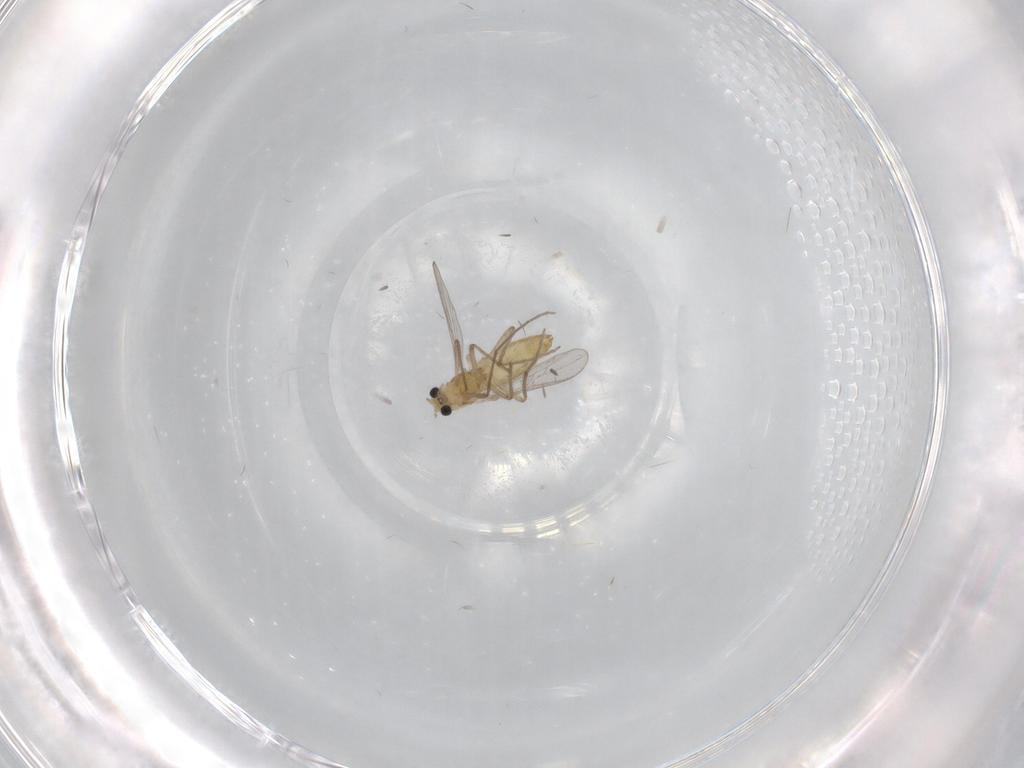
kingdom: Animalia
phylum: Arthropoda
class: Insecta
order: Diptera
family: Chironomidae
